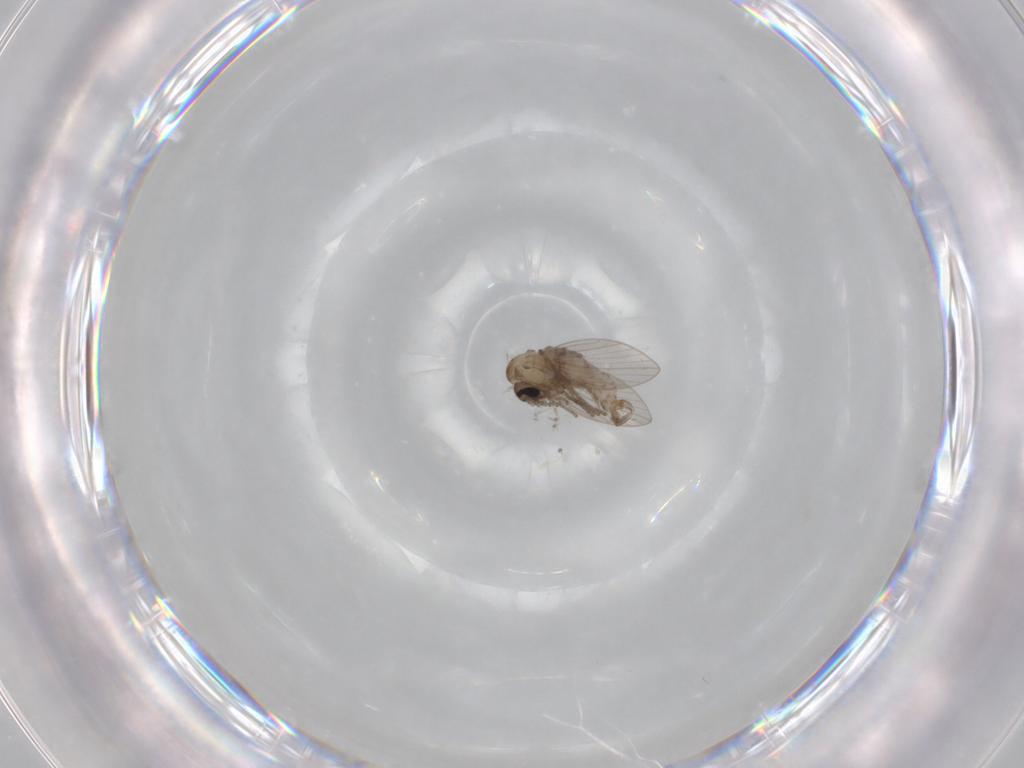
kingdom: Animalia
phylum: Arthropoda
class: Insecta
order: Diptera
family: Psychodidae
